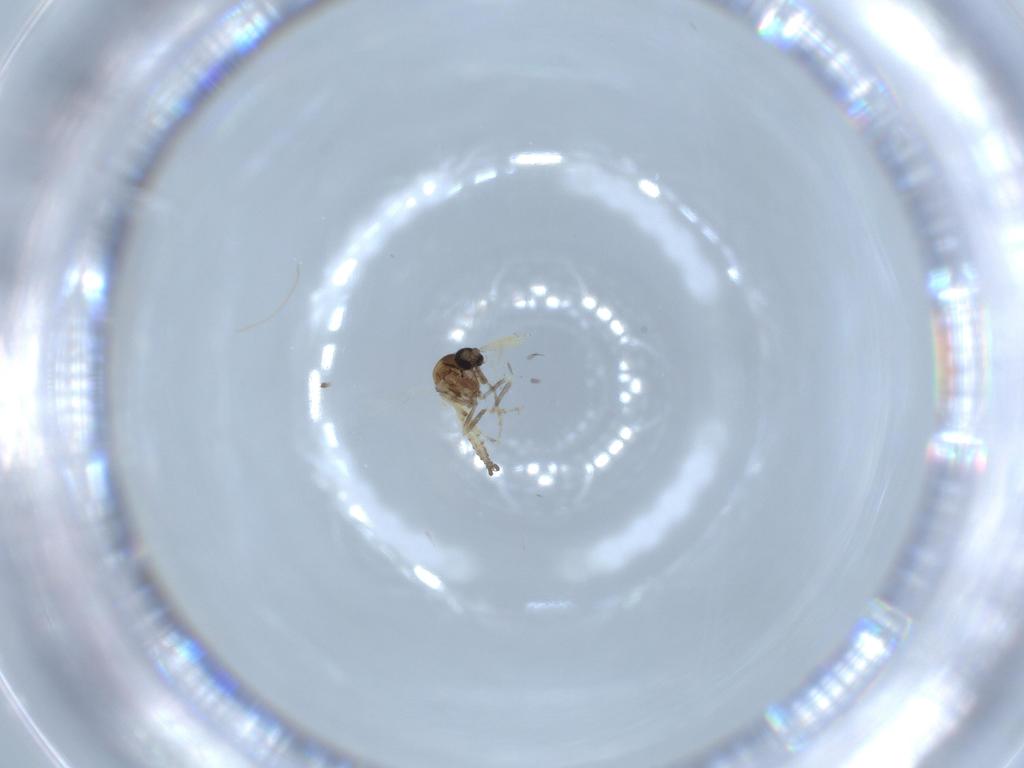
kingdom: Animalia
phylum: Arthropoda
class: Insecta
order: Diptera
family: Ceratopogonidae
